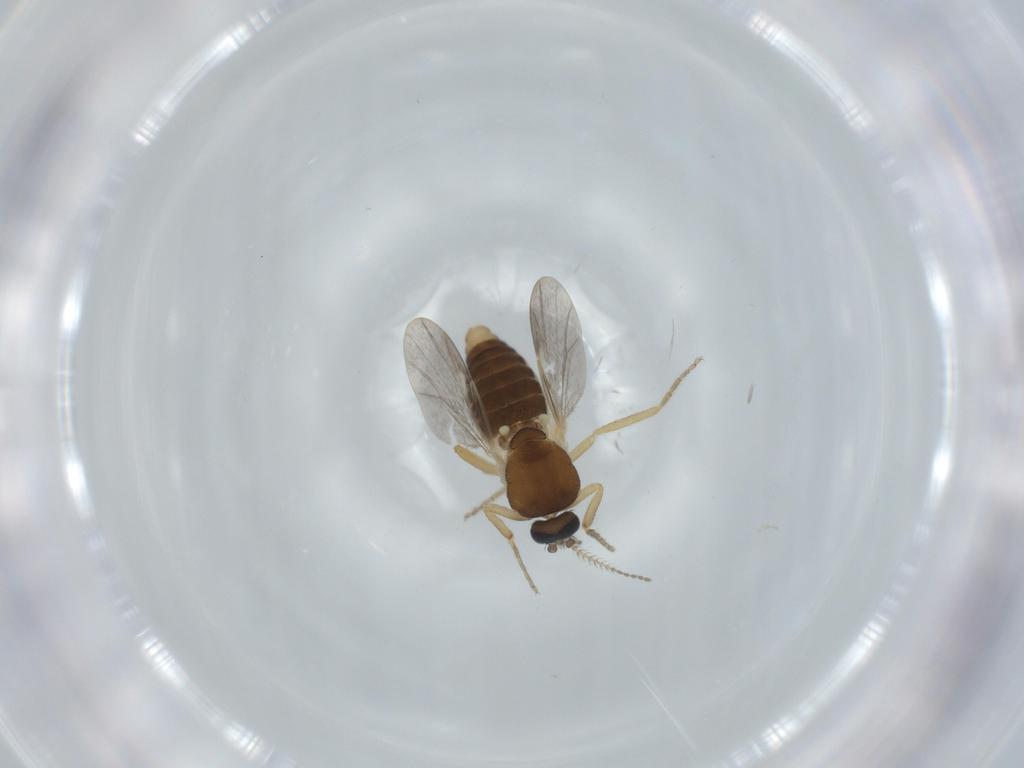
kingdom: Animalia
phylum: Arthropoda
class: Insecta
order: Diptera
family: Ceratopogonidae
